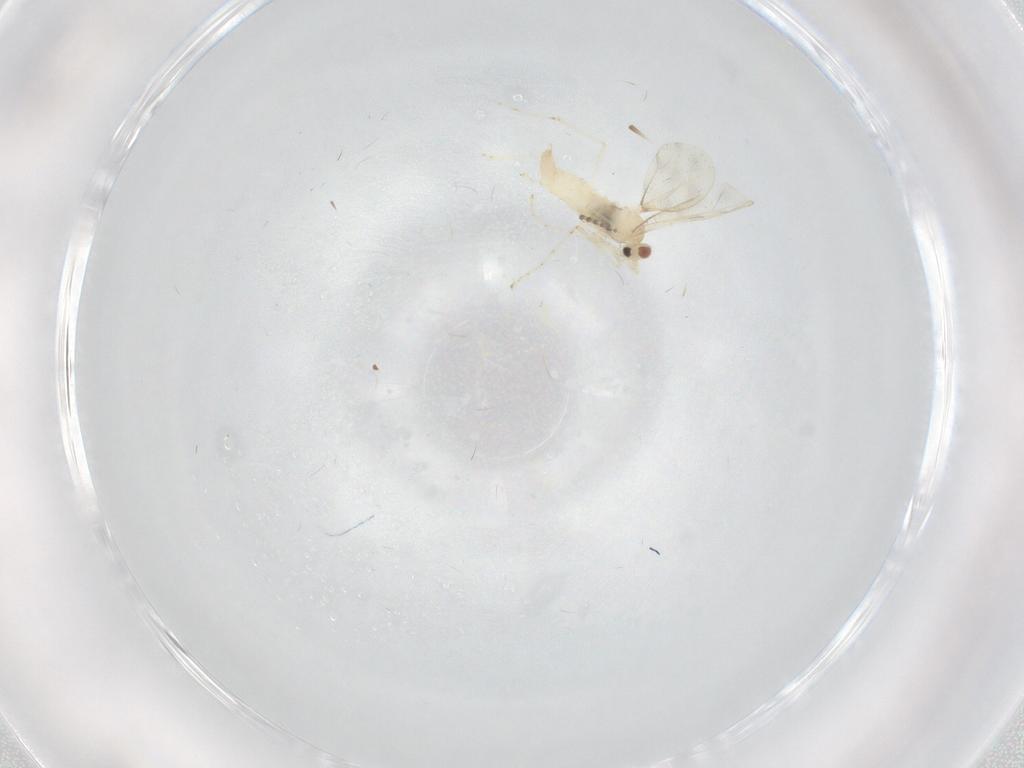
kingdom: Animalia
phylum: Arthropoda
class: Insecta
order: Diptera
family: Cecidomyiidae
